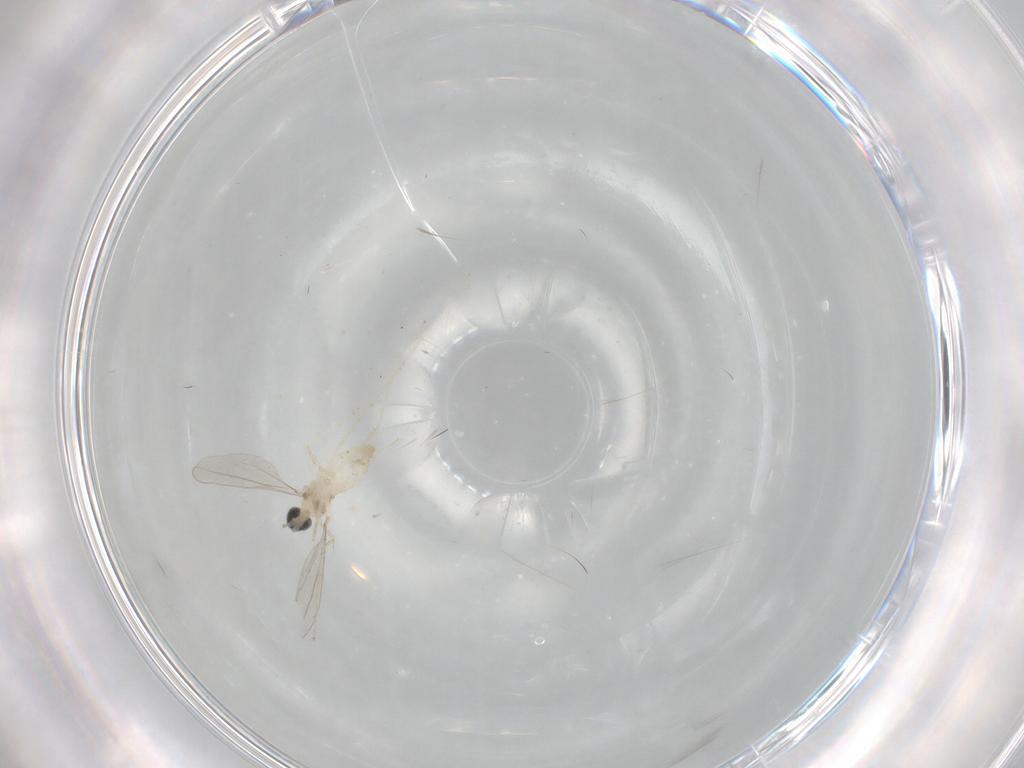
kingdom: Animalia
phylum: Arthropoda
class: Insecta
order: Diptera
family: Cecidomyiidae
